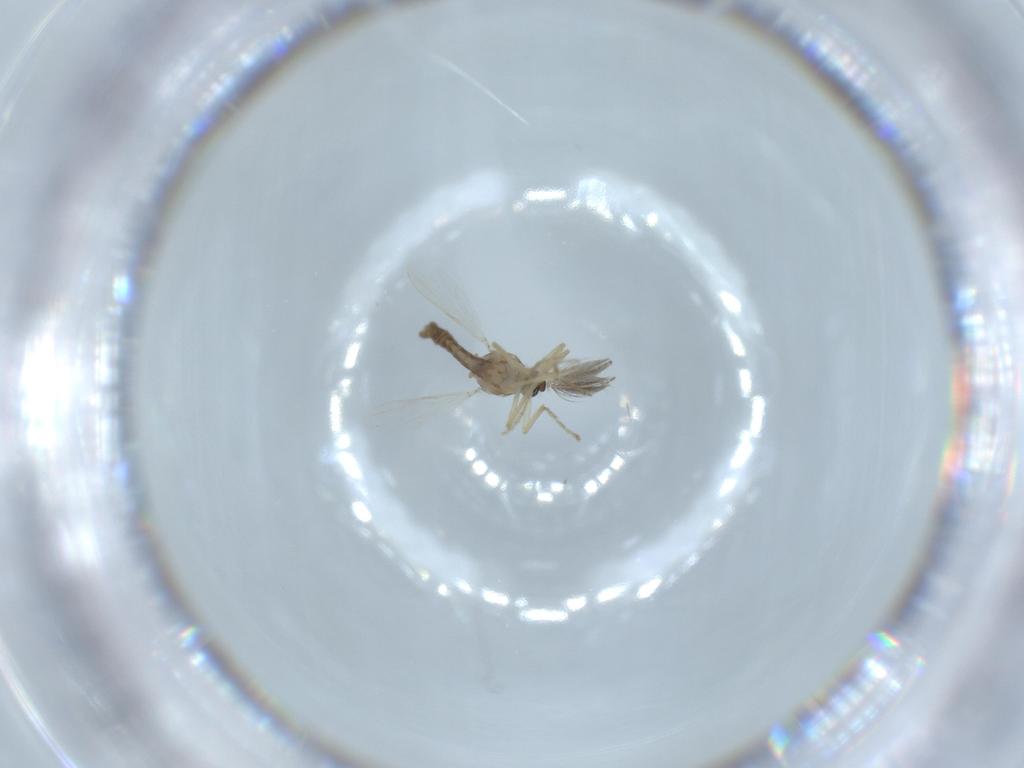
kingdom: Animalia
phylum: Arthropoda
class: Insecta
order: Diptera
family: Ceratopogonidae
